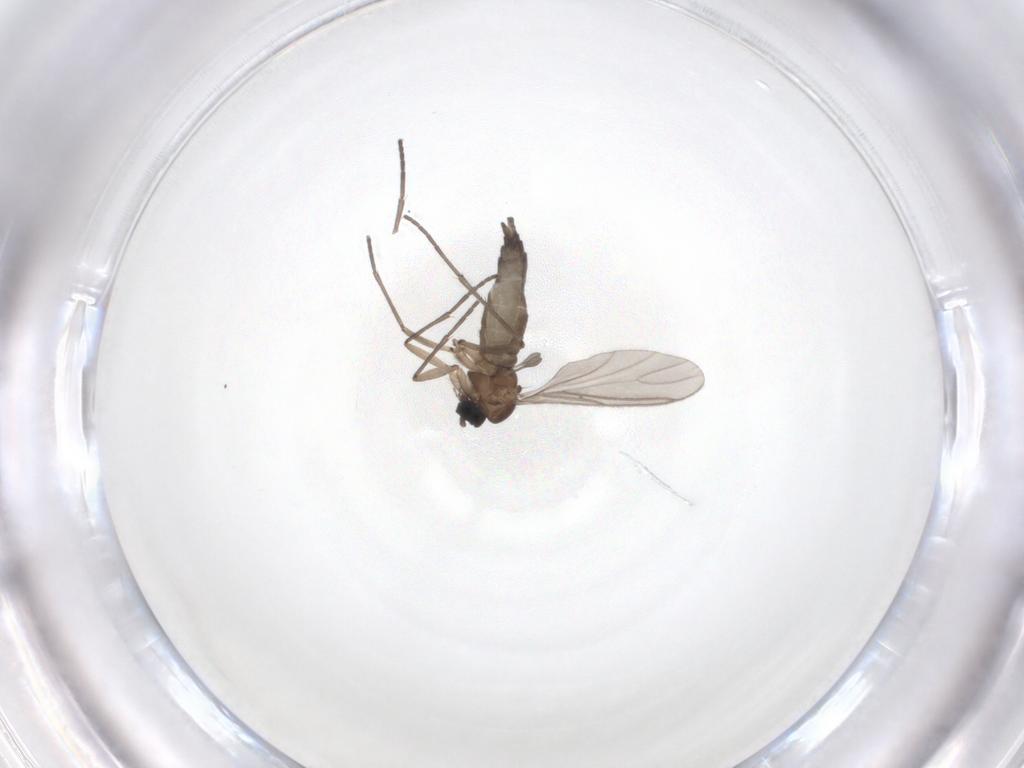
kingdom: Animalia
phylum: Arthropoda
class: Insecta
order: Diptera
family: Sciaridae
